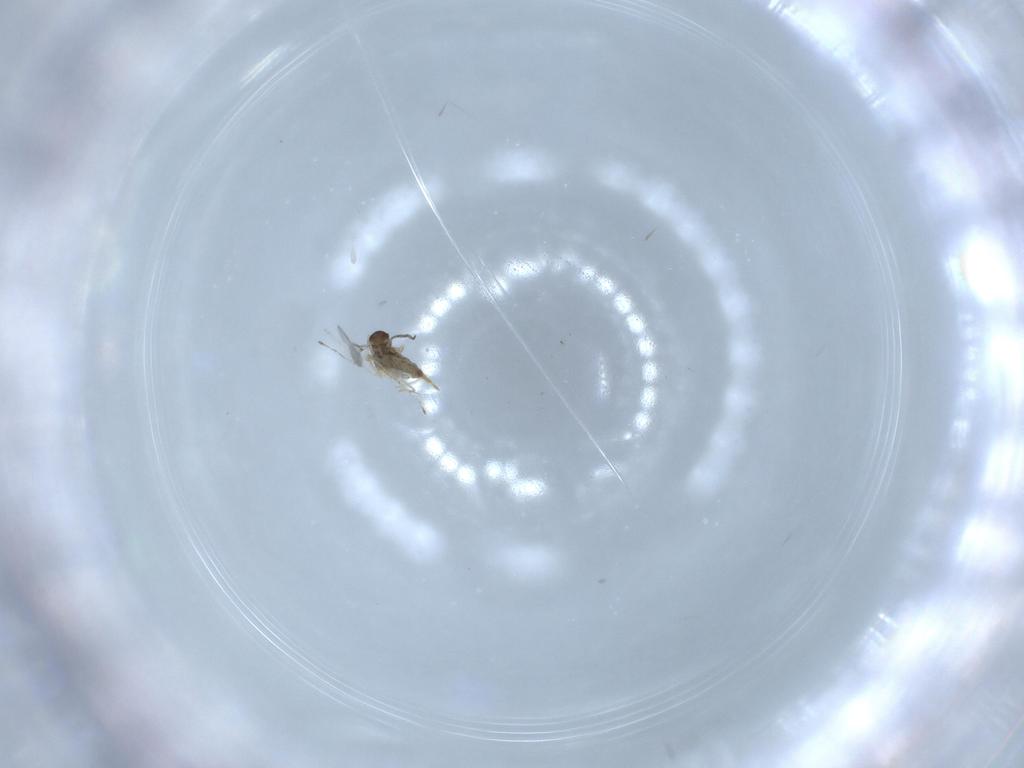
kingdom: Animalia
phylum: Arthropoda
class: Insecta
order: Diptera
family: Cecidomyiidae
